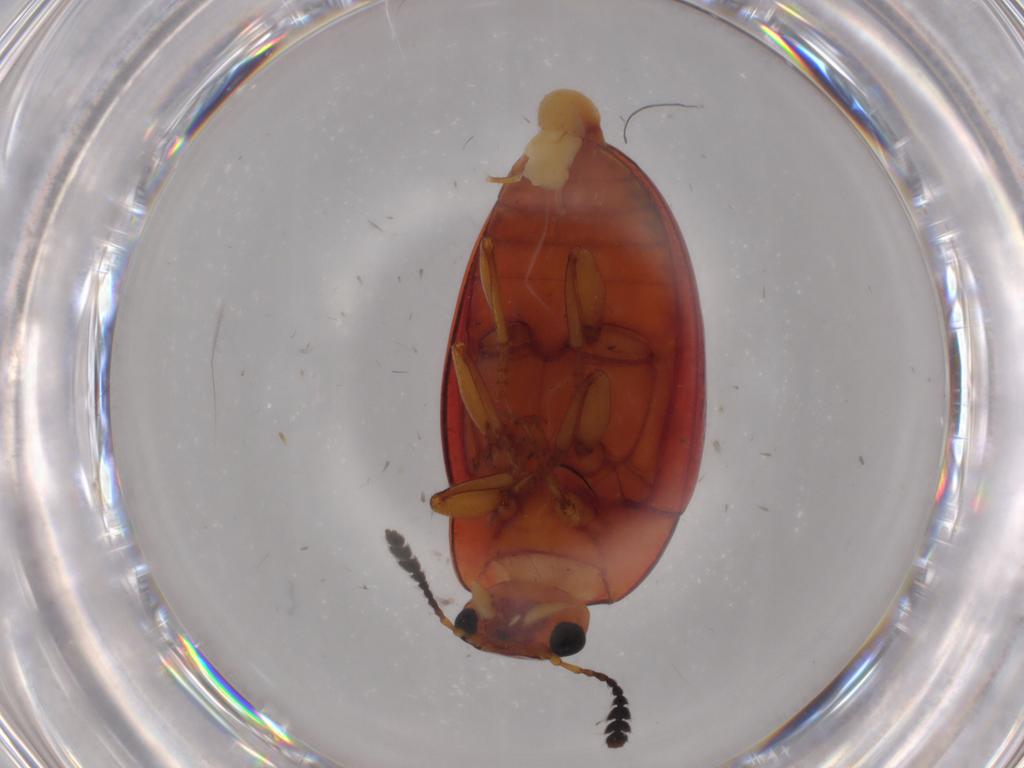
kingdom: Animalia
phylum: Arthropoda
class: Insecta
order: Coleoptera
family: Erotylidae
